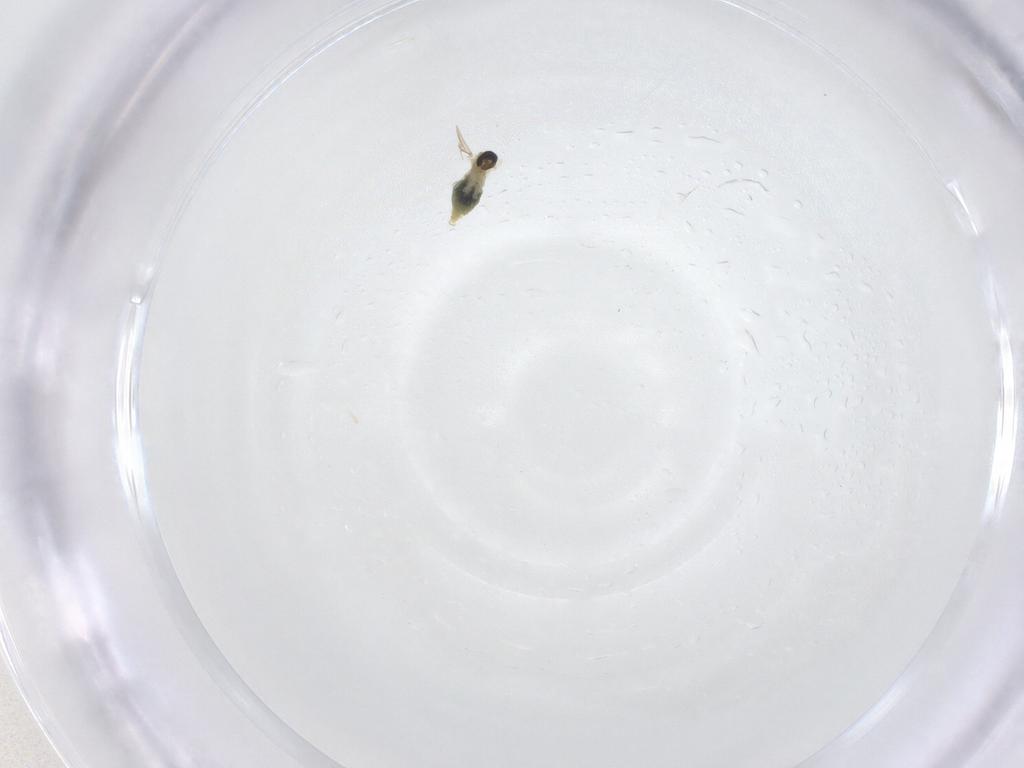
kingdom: Animalia
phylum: Arthropoda
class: Insecta
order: Diptera
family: Cecidomyiidae
